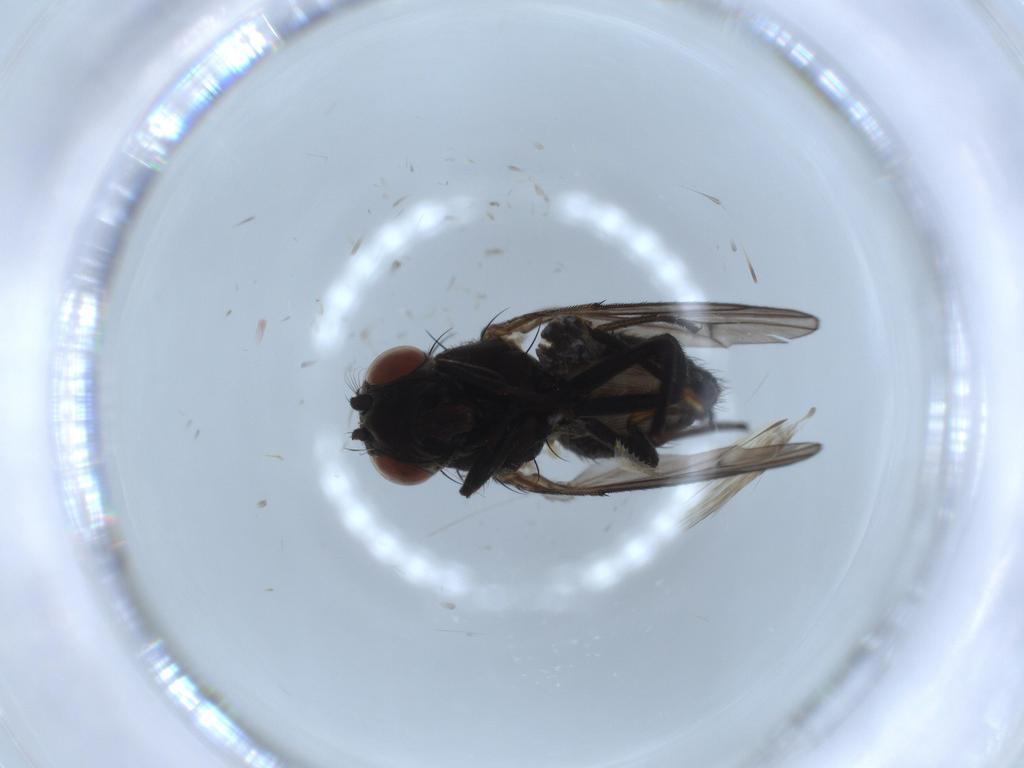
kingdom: Animalia
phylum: Arthropoda
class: Insecta
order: Diptera
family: Ephydridae
